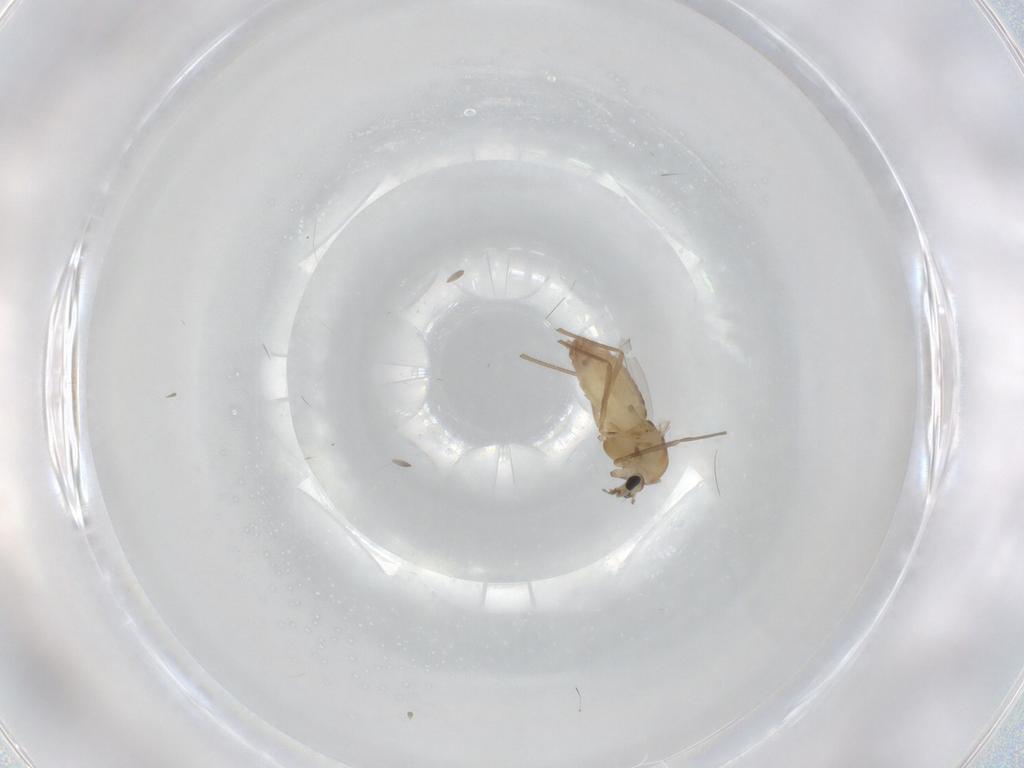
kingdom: Animalia
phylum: Arthropoda
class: Insecta
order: Diptera
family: Chironomidae
